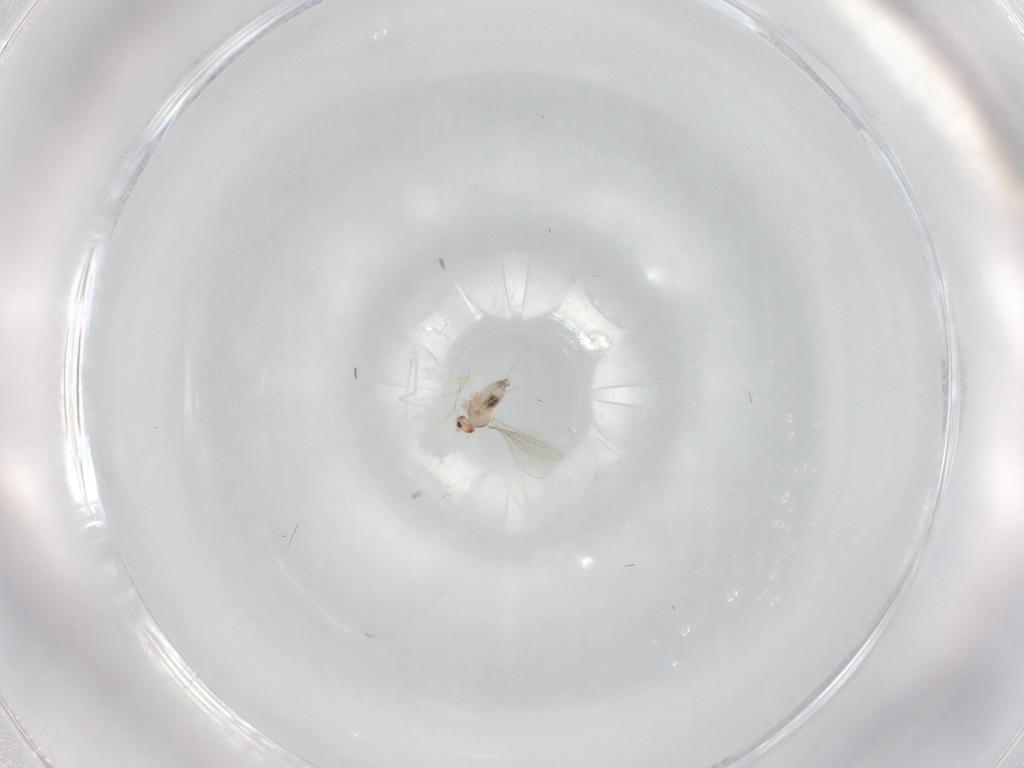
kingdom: Animalia
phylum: Arthropoda
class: Insecta
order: Diptera
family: Cecidomyiidae
